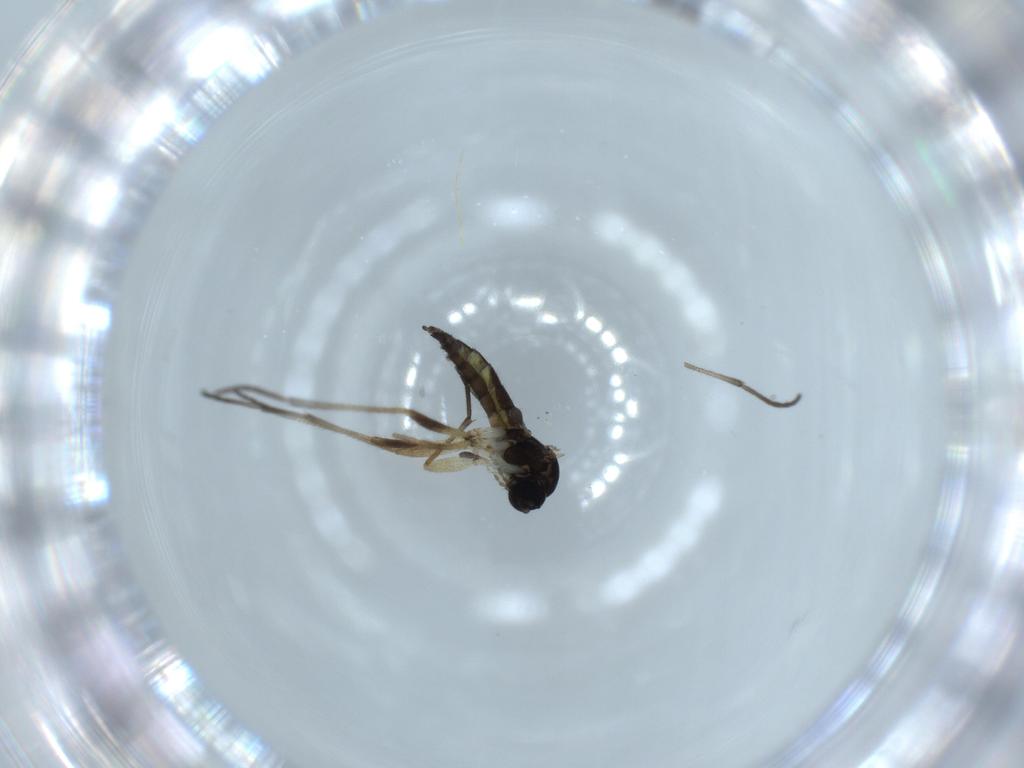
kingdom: Animalia
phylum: Arthropoda
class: Insecta
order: Diptera
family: Sciaridae
